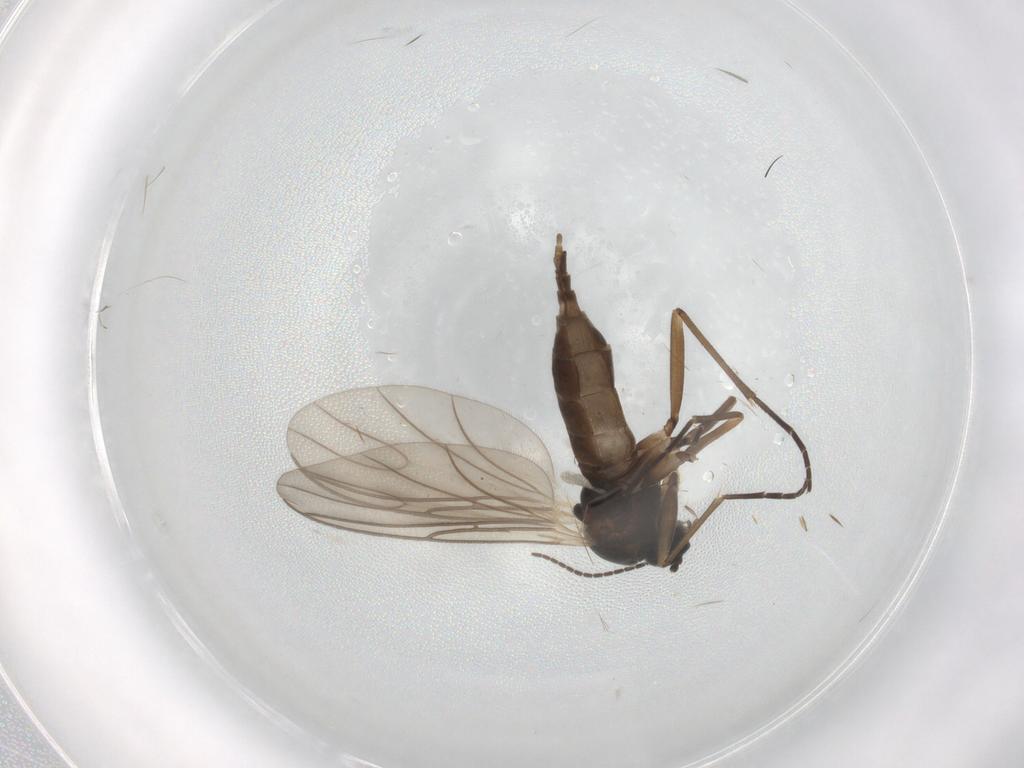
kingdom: Animalia
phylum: Arthropoda
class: Insecta
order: Diptera
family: Sciaridae
